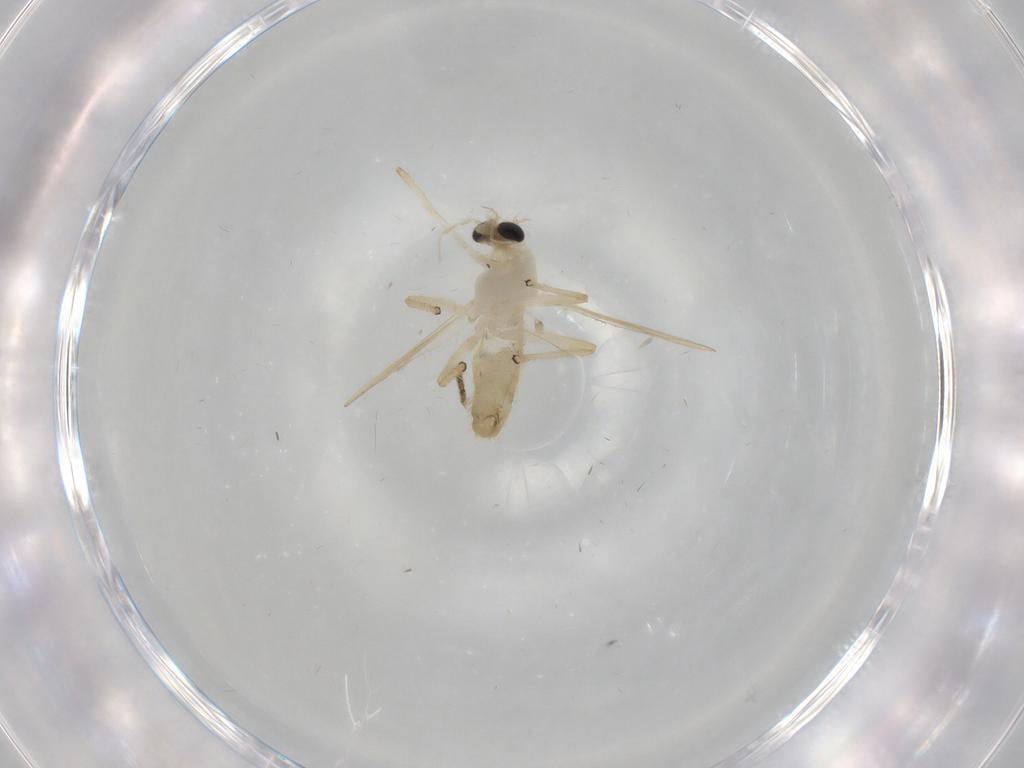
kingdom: Animalia
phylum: Arthropoda
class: Insecta
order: Diptera
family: Chironomidae
